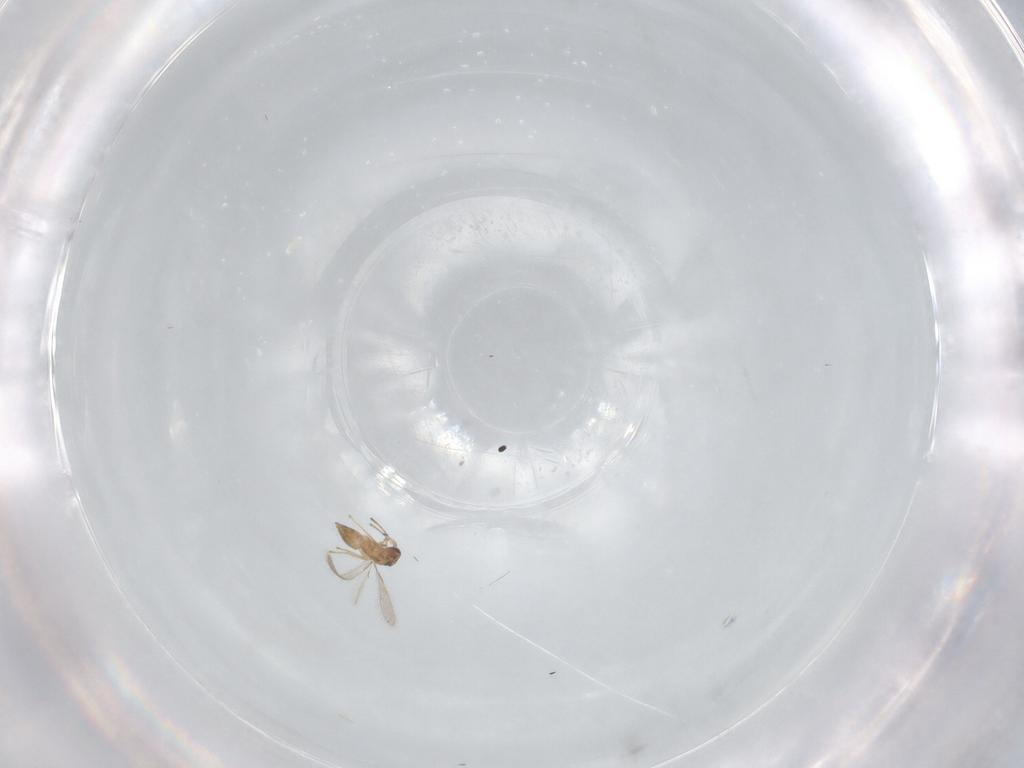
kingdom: Animalia
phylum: Arthropoda
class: Insecta
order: Hymenoptera
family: Mymaridae
